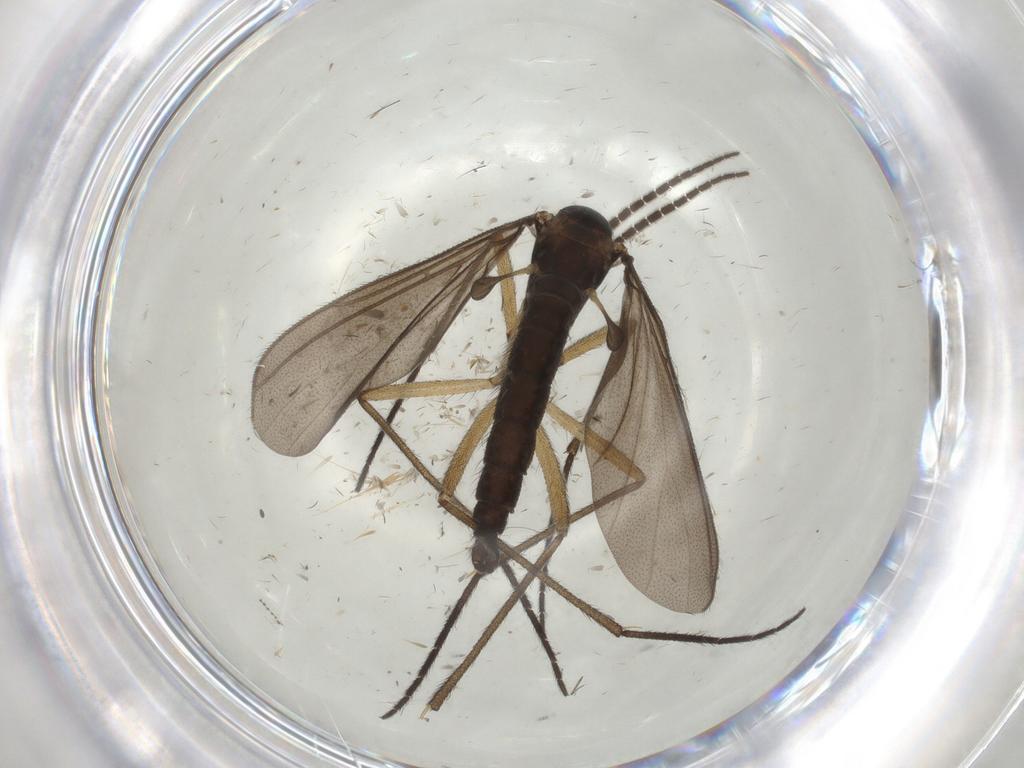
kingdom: Animalia
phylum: Arthropoda
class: Insecta
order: Diptera
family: Sciaridae
